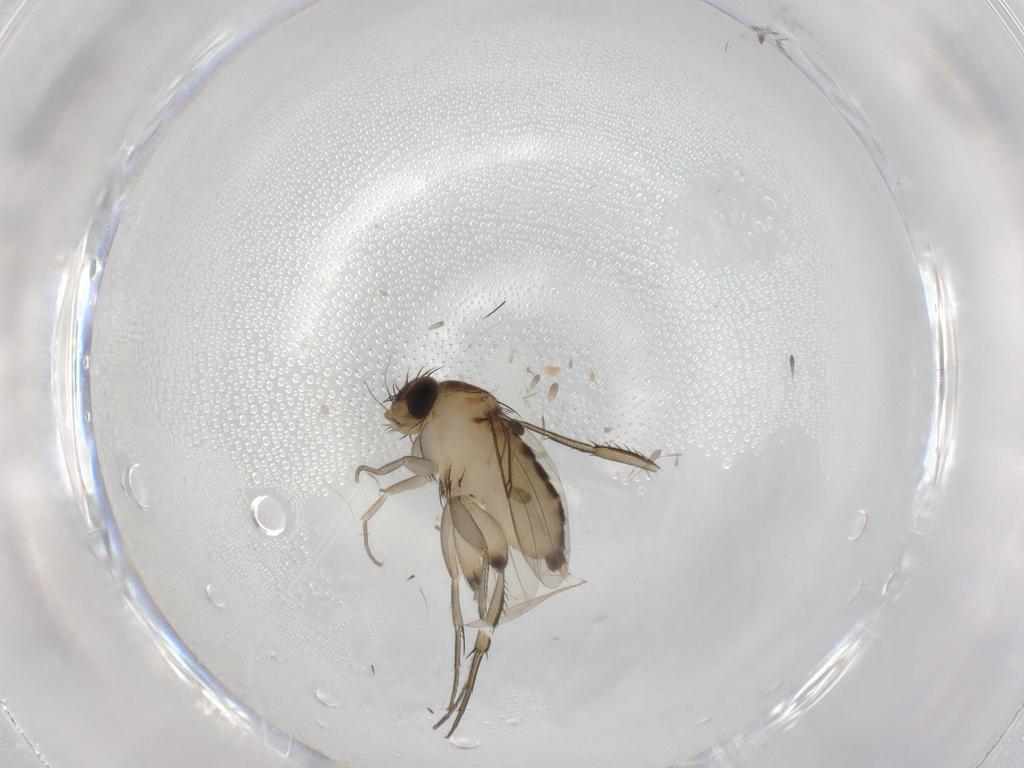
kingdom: Animalia
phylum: Arthropoda
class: Insecta
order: Diptera
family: Phoridae
